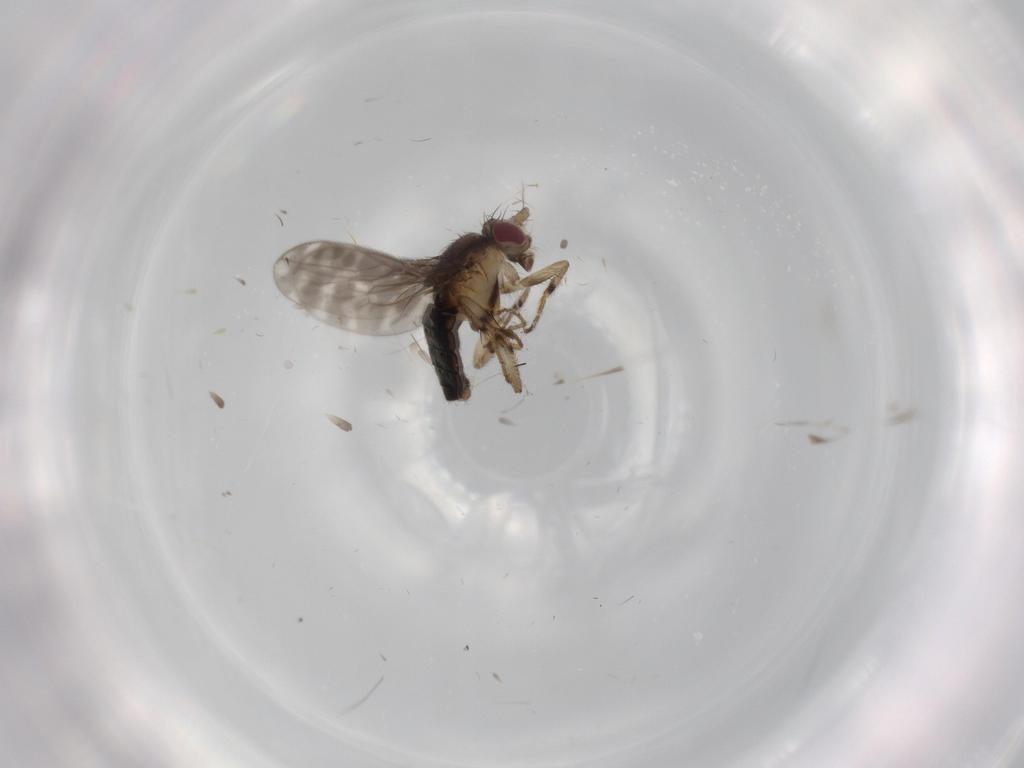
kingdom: Animalia
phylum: Arthropoda
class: Insecta
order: Diptera
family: Sphaeroceridae
